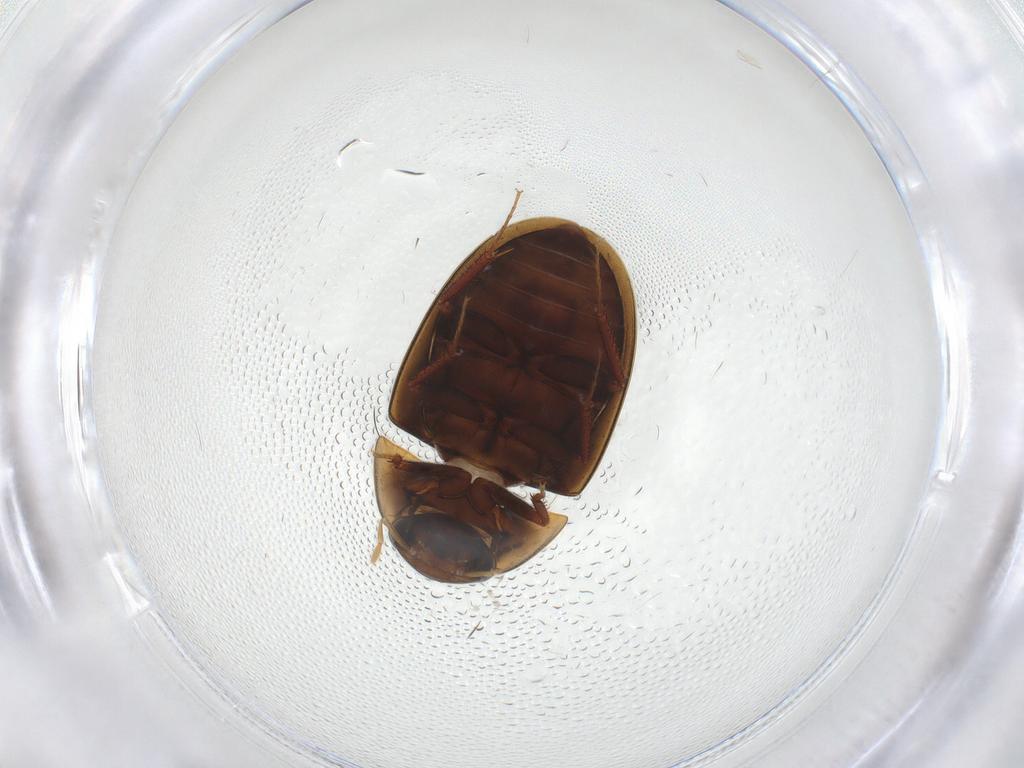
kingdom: Animalia
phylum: Arthropoda
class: Insecta
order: Coleoptera
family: Hydrophilidae
